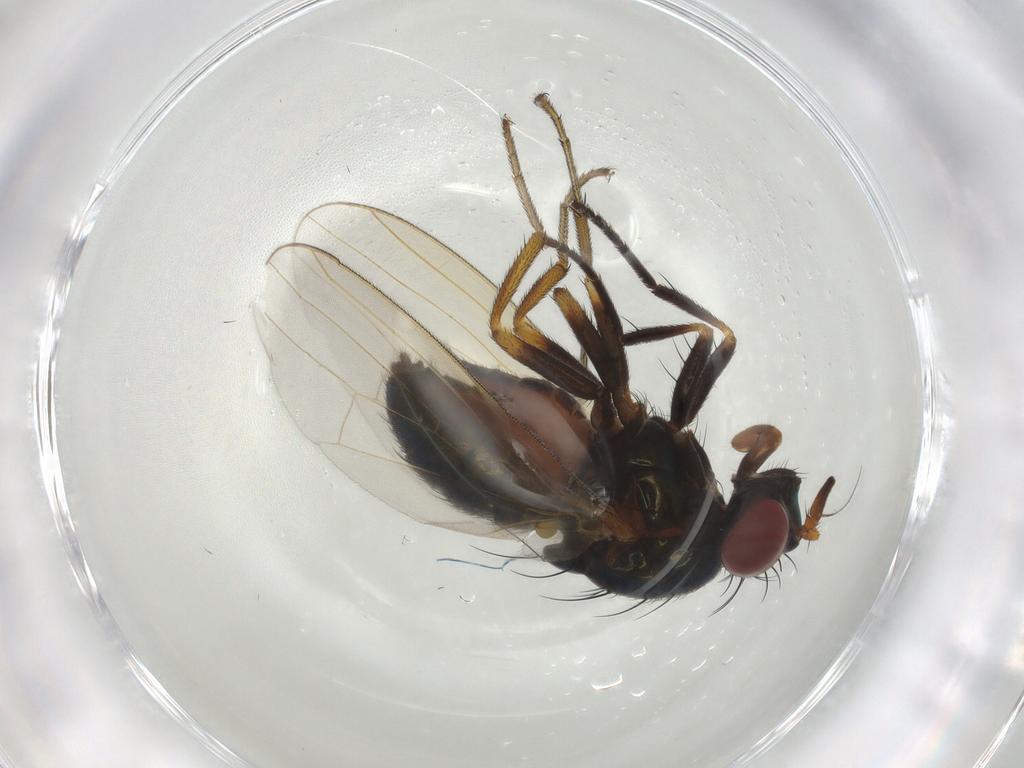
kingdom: Animalia
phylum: Arthropoda
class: Insecta
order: Diptera
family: Lauxaniidae
